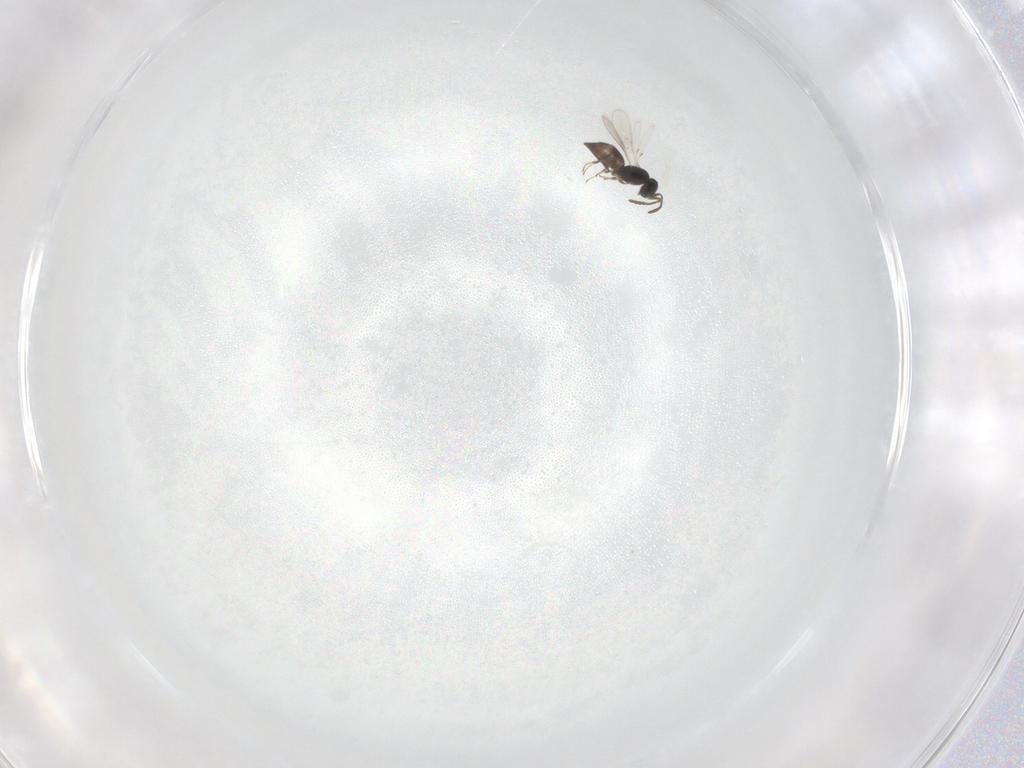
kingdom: Animalia
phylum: Arthropoda
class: Insecta
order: Hymenoptera
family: Scelionidae
